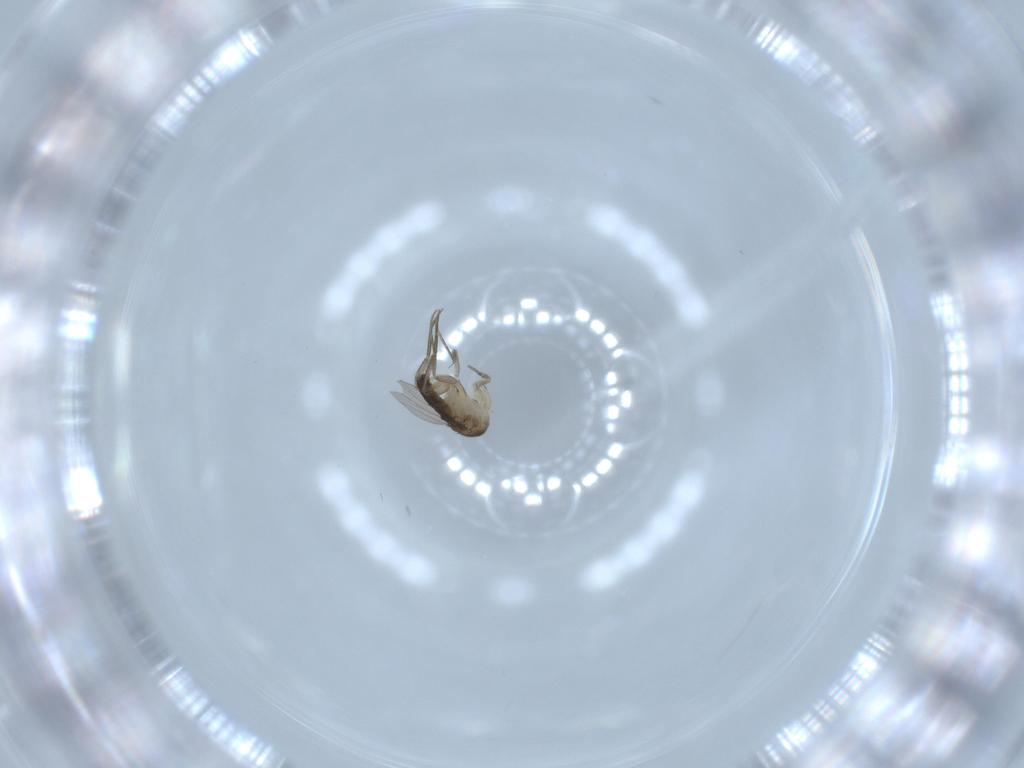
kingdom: Animalia
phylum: Arthropoda
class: Insecta
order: Diptera
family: Phoridae
